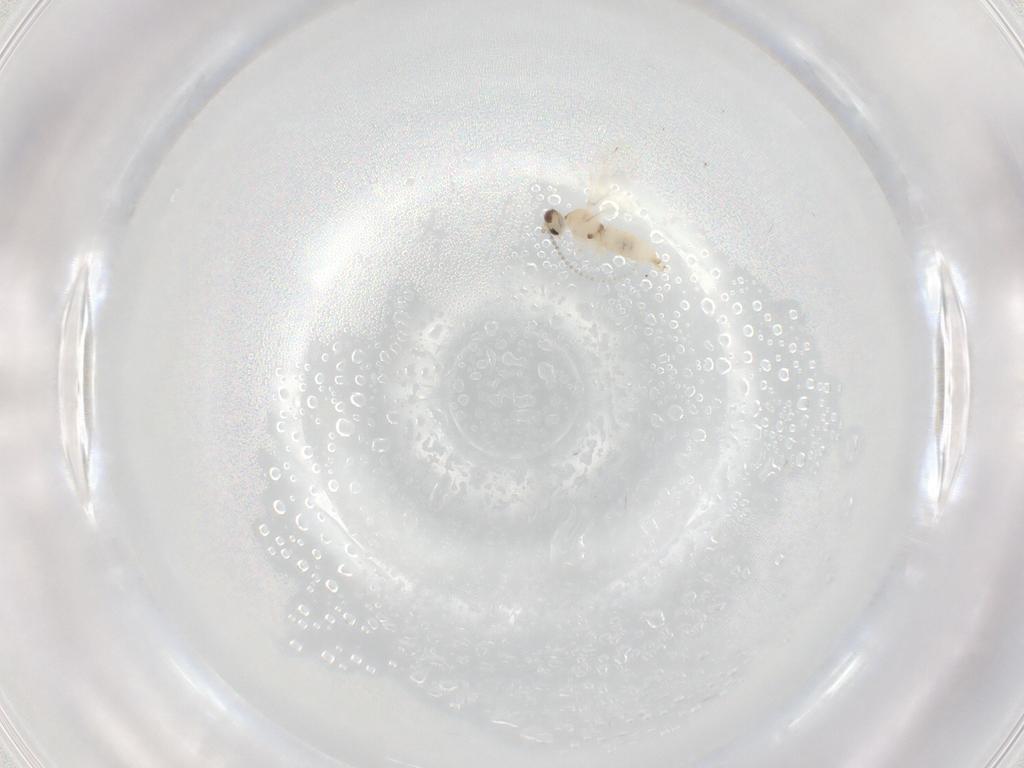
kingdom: Animalia
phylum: Arthropoda
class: Insecta
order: Diptera
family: Cecidomyiidae
